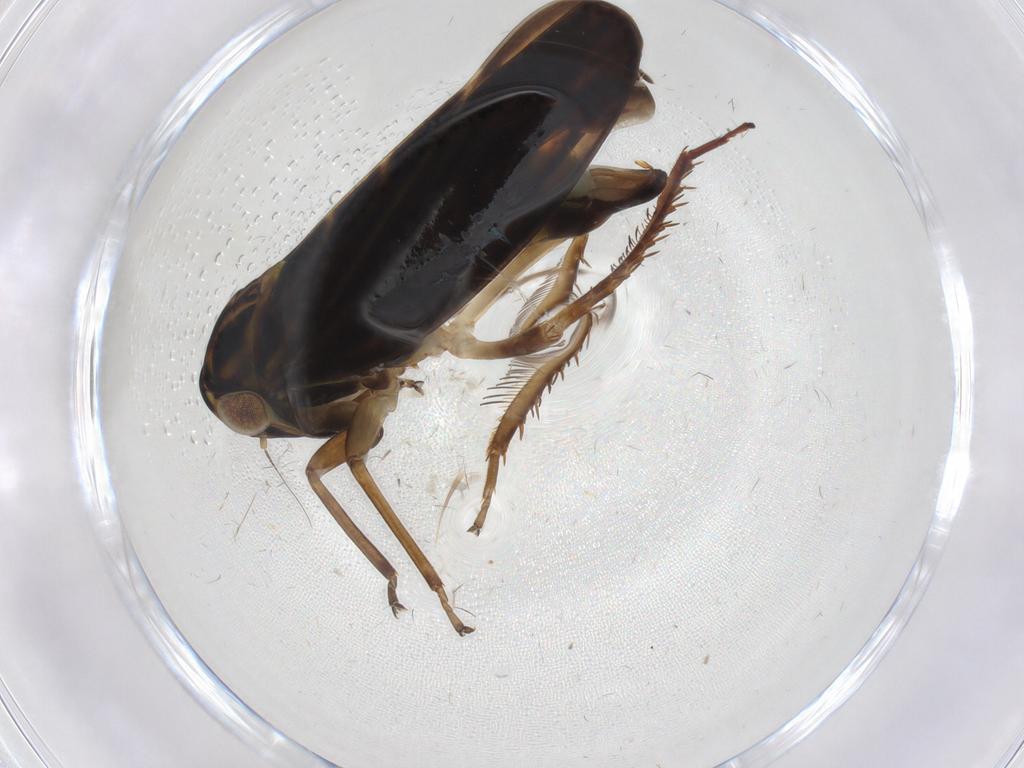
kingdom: Animalia
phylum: Arthropoda
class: Insecta
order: Hemiptera
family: Cicadellidae
